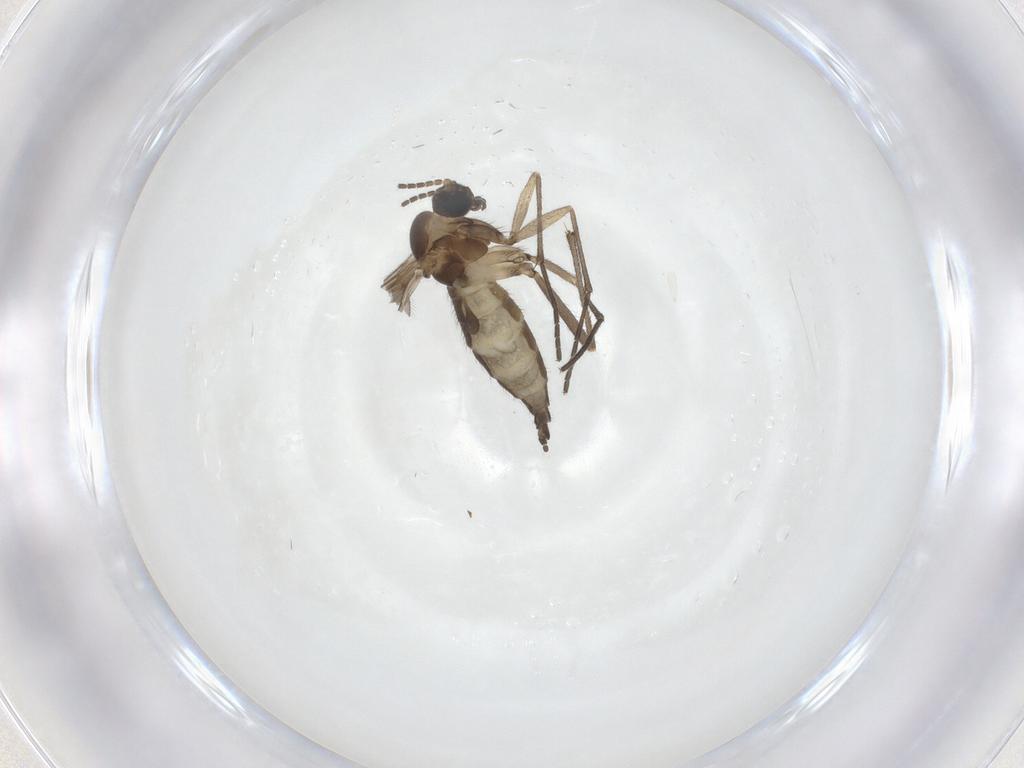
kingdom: Animalia
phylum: Arthropoda
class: Insecta
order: Diptera
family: Sciaridae
